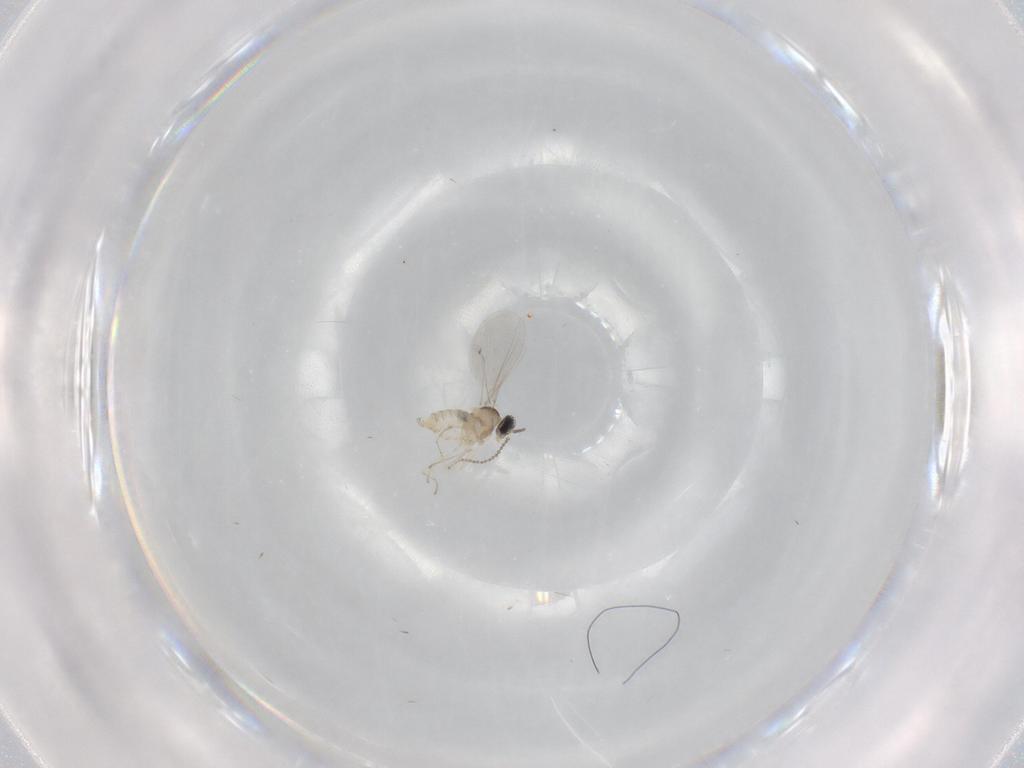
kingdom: Animalia
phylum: Arthropoda
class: Insecta
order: Diptera
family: Cecidomyiidae
